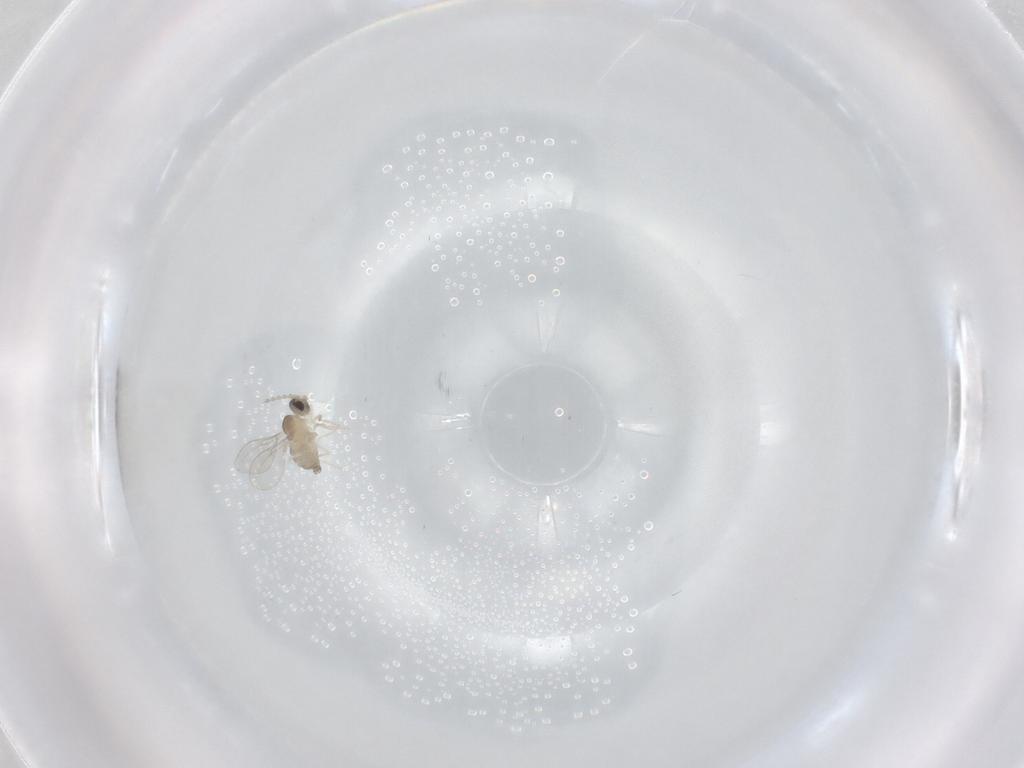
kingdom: Animalia
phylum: Arthropoda
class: Insecta
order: Diptera
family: Cecidomyiidae
